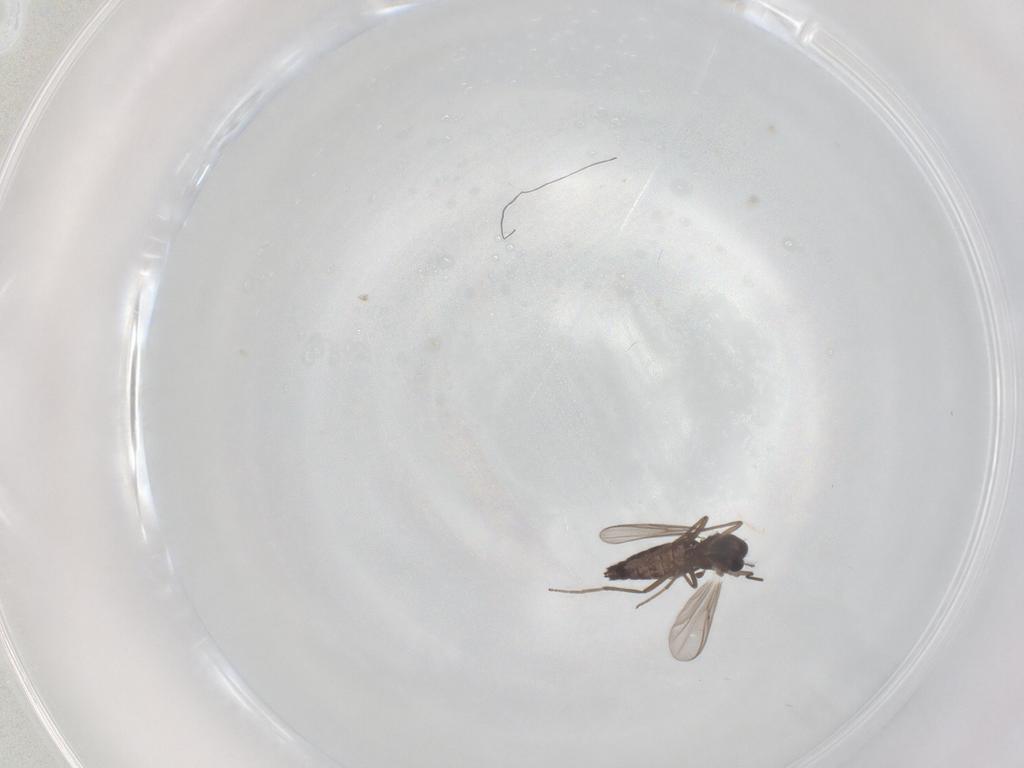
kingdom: Animalia
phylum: Arthropoda
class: Insecta
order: Diptera
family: Chironomidae
